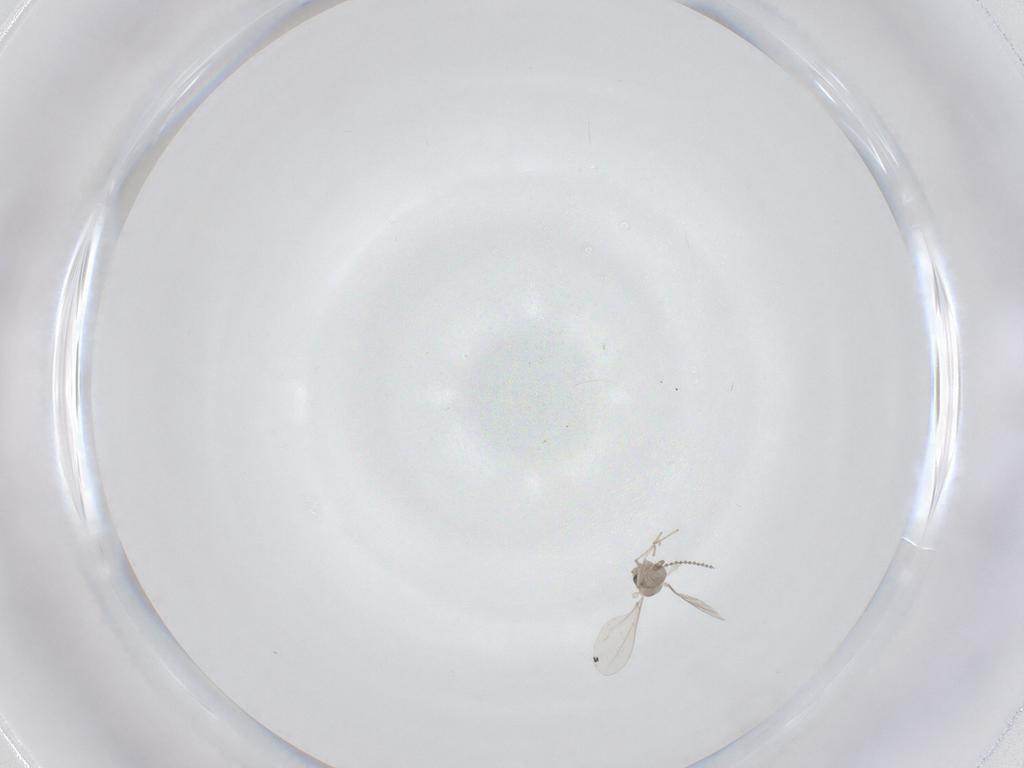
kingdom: Animalia
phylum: Arthropoda
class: Insecta
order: Diptera
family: Cecidomyiidae
